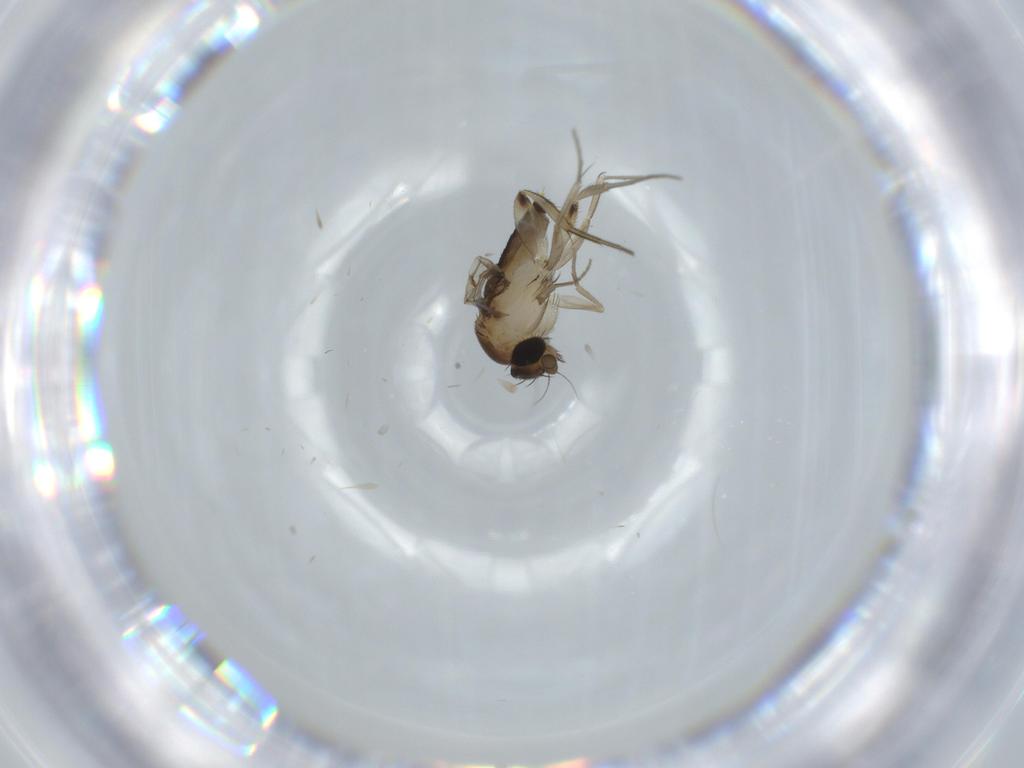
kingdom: Animalia
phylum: Arthropoda
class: Insecta
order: Diptera
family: Phoridae
